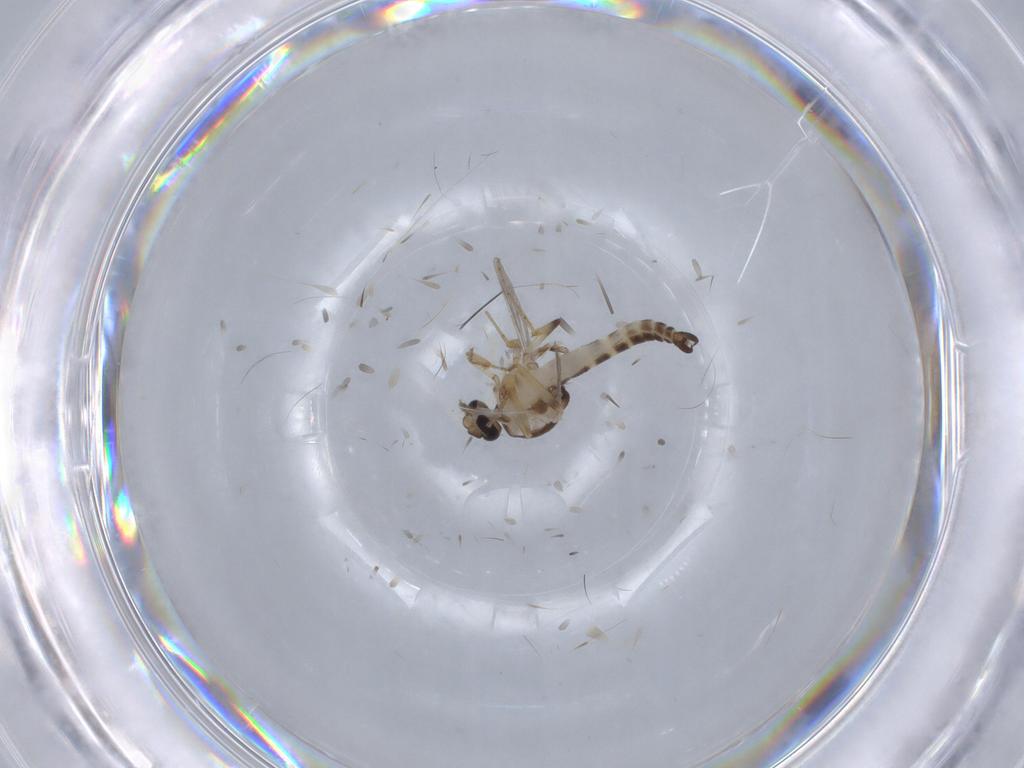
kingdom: Animalia
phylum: Arthropoda
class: Insecta
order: Diptera
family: Ceratopogonidae
